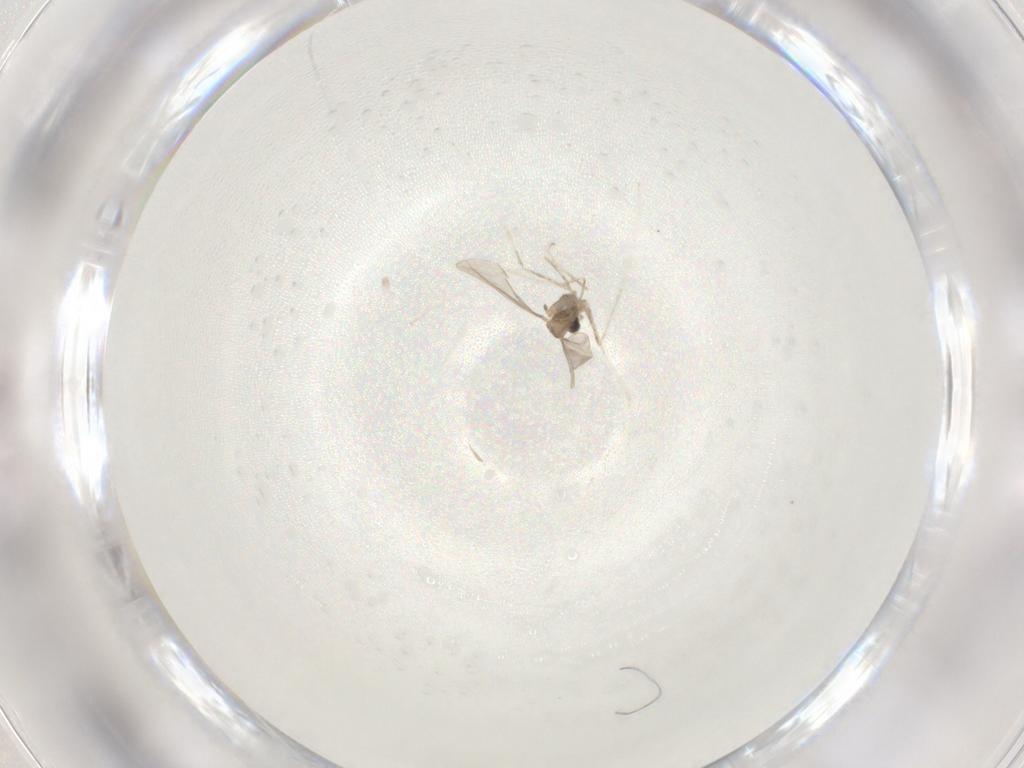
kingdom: Animalia
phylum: Arthropoda
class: Insecta
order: Diptera
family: Cecidomyiidae
